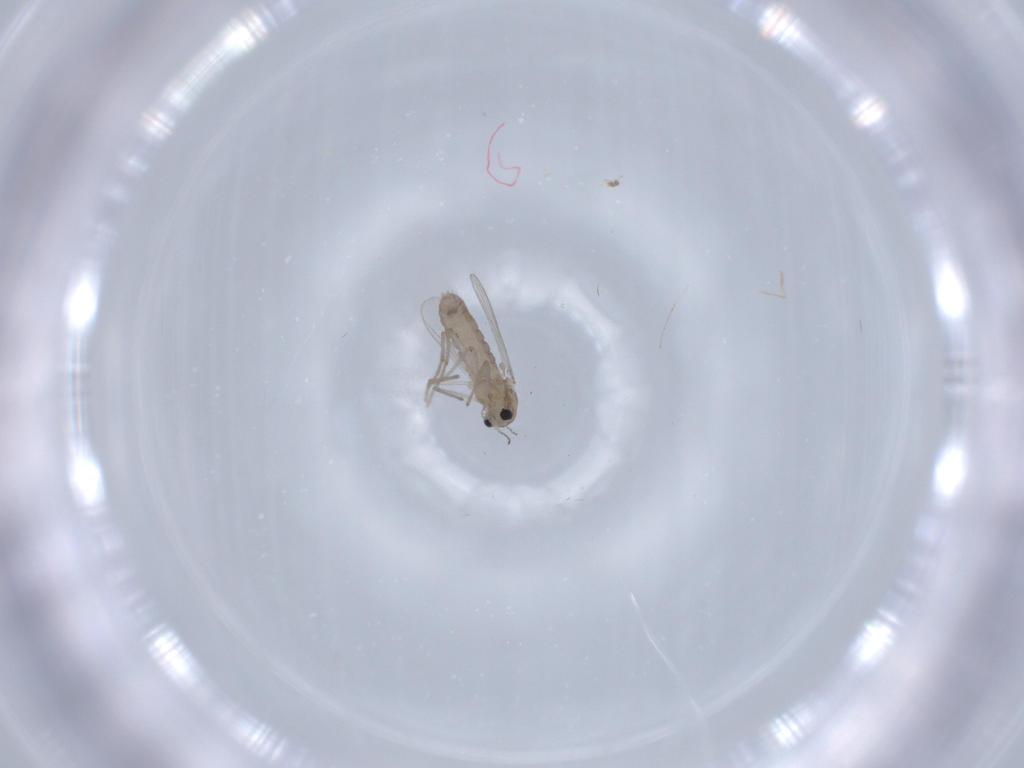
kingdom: Animalia
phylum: Arthropoda
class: Insecta
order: Diptera
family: Chironomidae
